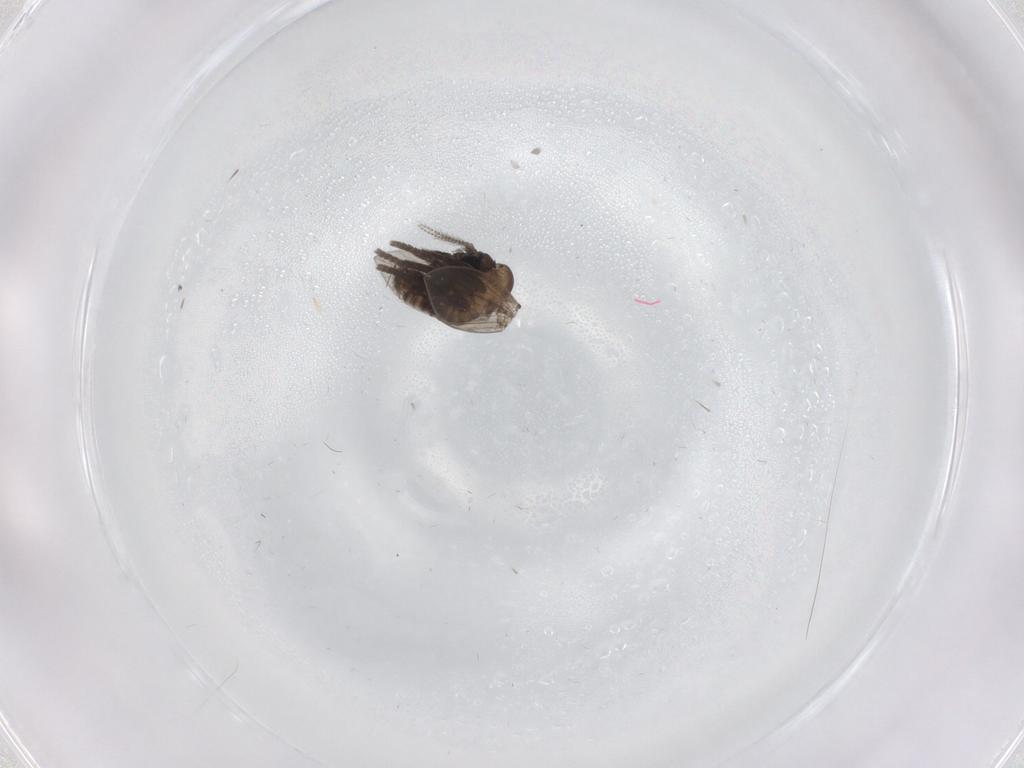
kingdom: Animalia
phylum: Arthropoda
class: Insecta
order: Diptera
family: Psychodidae
